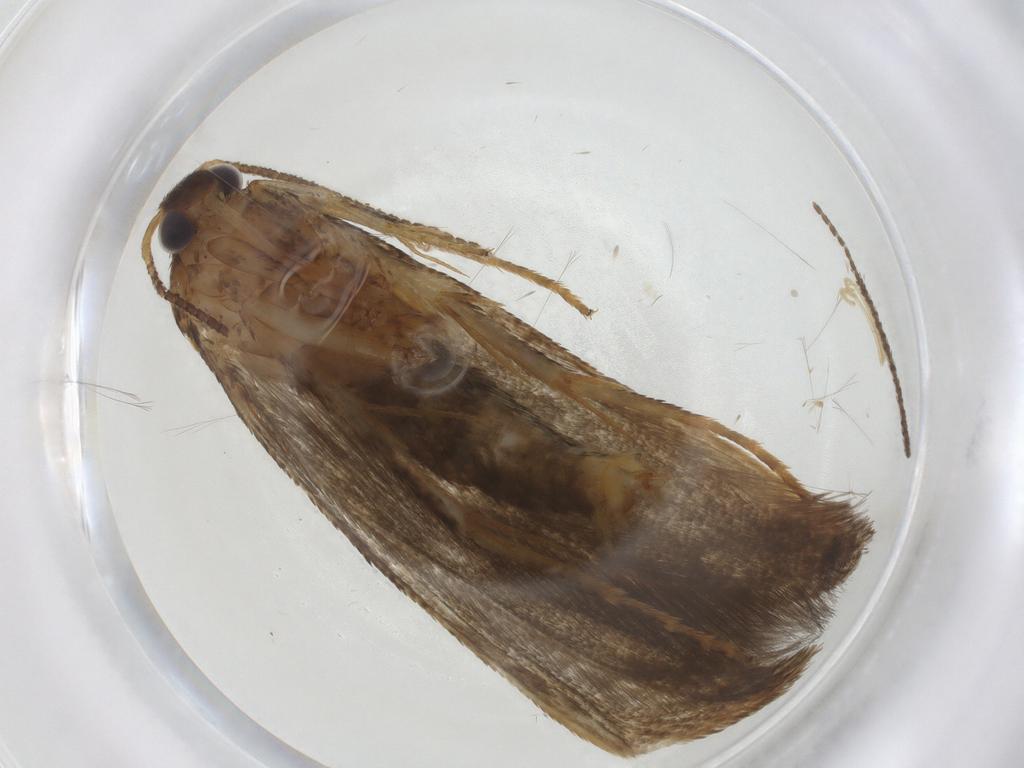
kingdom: Animalia
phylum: Arthropoda
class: Insecta
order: Lepidoptera
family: Blastobasidae
